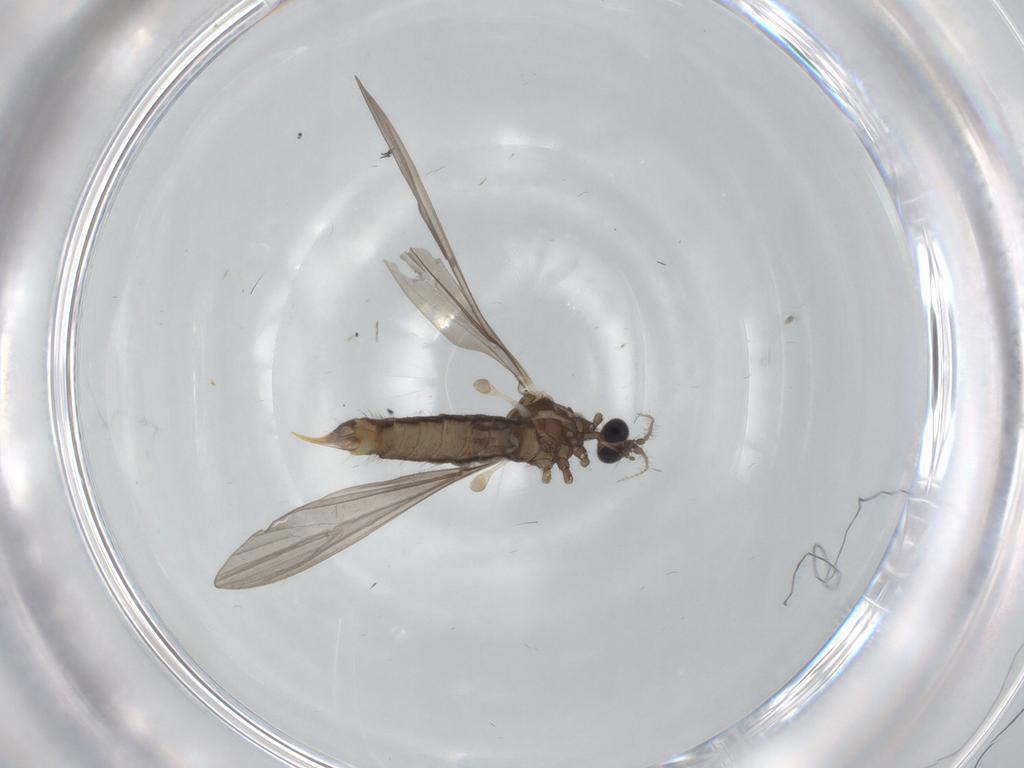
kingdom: Animalia
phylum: Arthropoda
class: Insecta
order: Diptera
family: Limoniidae
